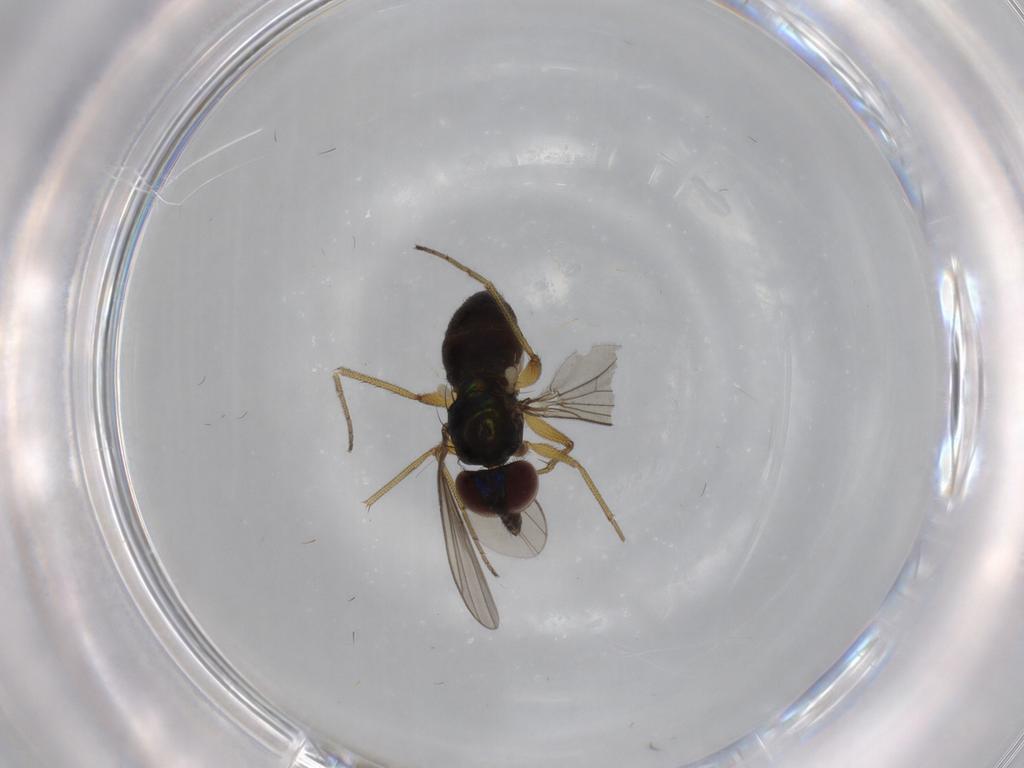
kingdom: Animalia
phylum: Arthropoda
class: Insecta
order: Diptera
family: Dolichopodidae
